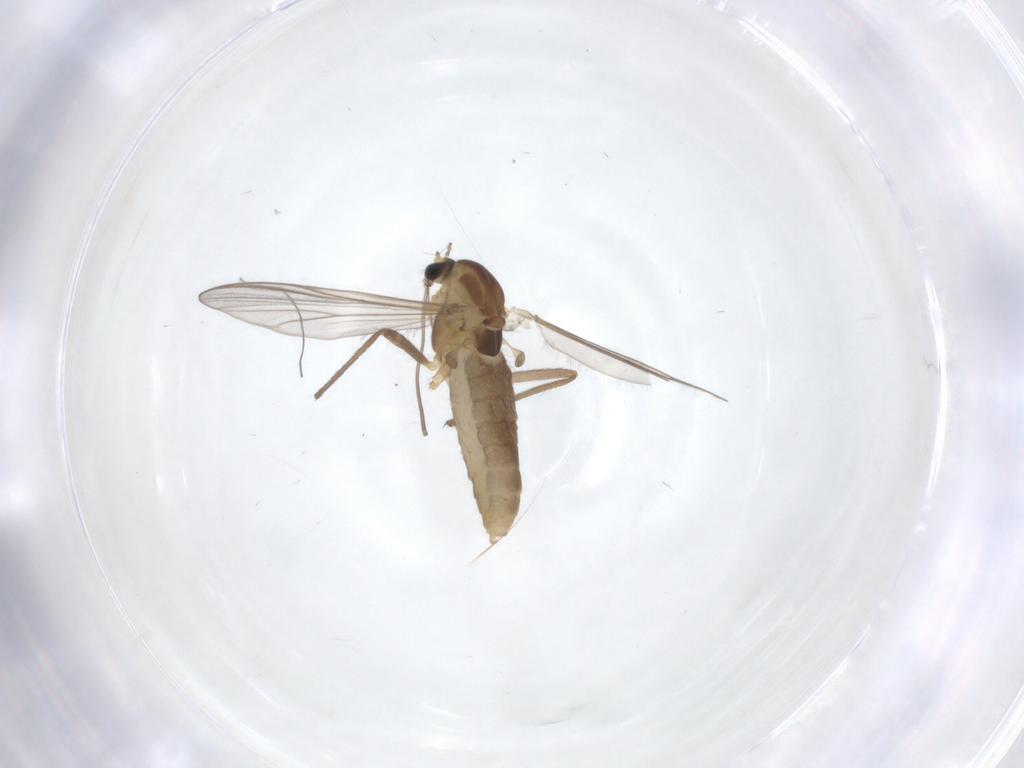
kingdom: Animalia
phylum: Arthropoda
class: Insecta
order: Diptera
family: Chironomidae
